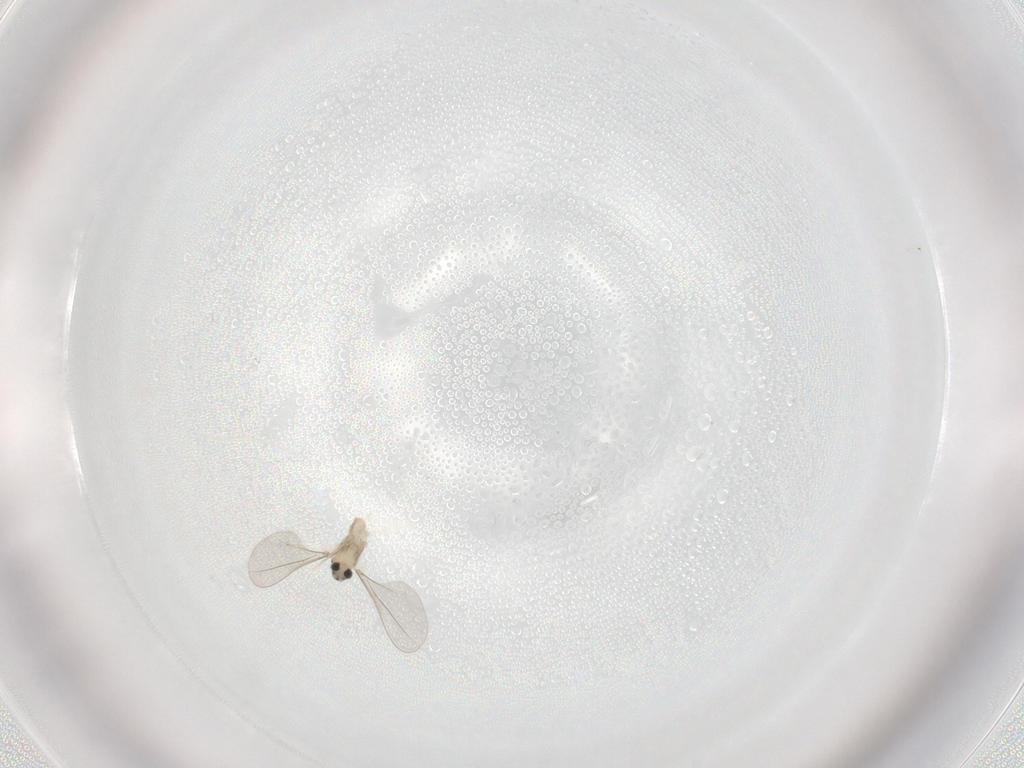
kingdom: Animalia
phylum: Arthropoda
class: Insecta
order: Diptera
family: Cecidomyiidae
